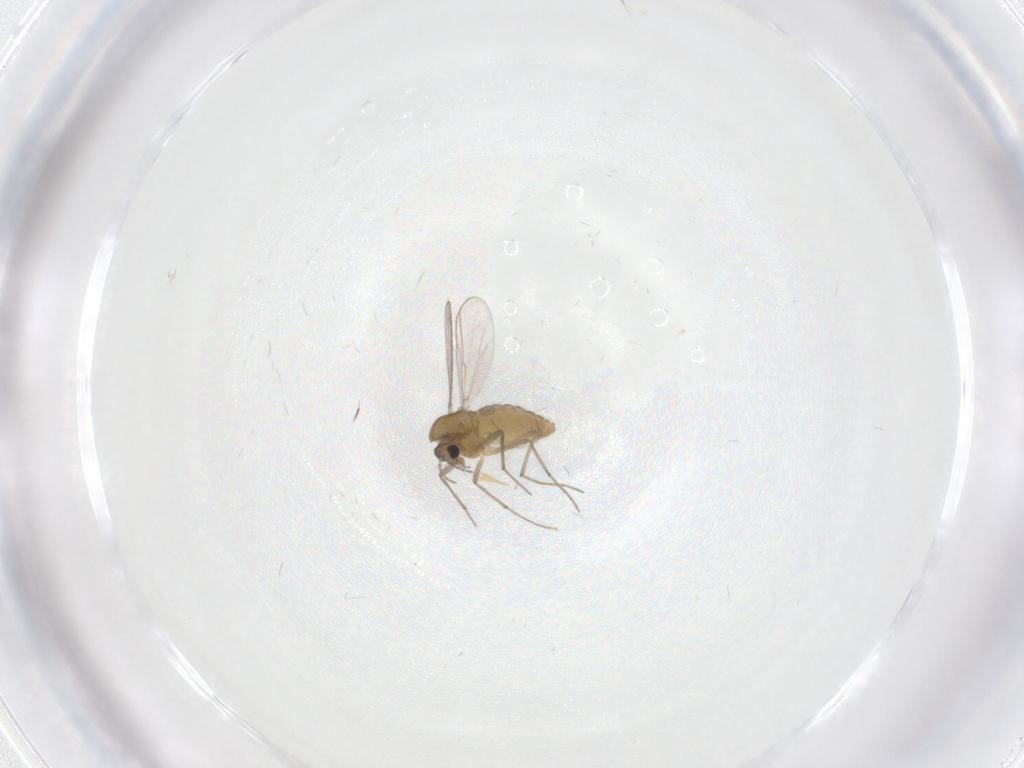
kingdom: Animalia
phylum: Arthropoda
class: Insecta
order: Diptera
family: Chironomidae
